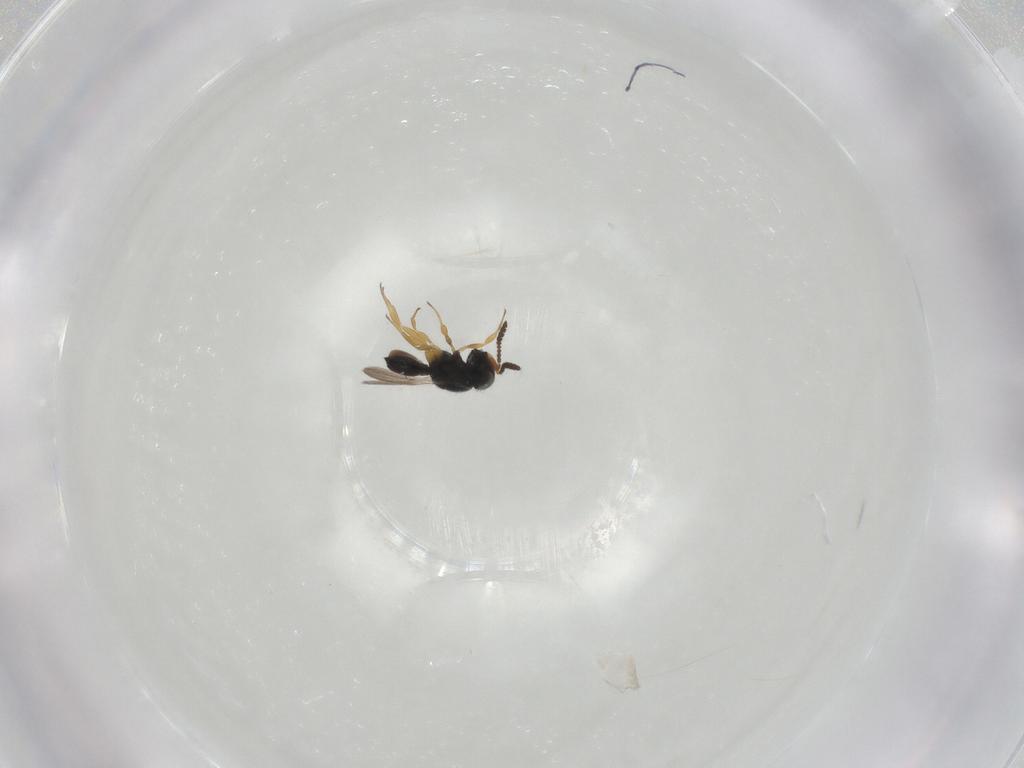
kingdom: Animalia
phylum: Arthropoda
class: Insecta
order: Hymenoptera
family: Scelionidae
